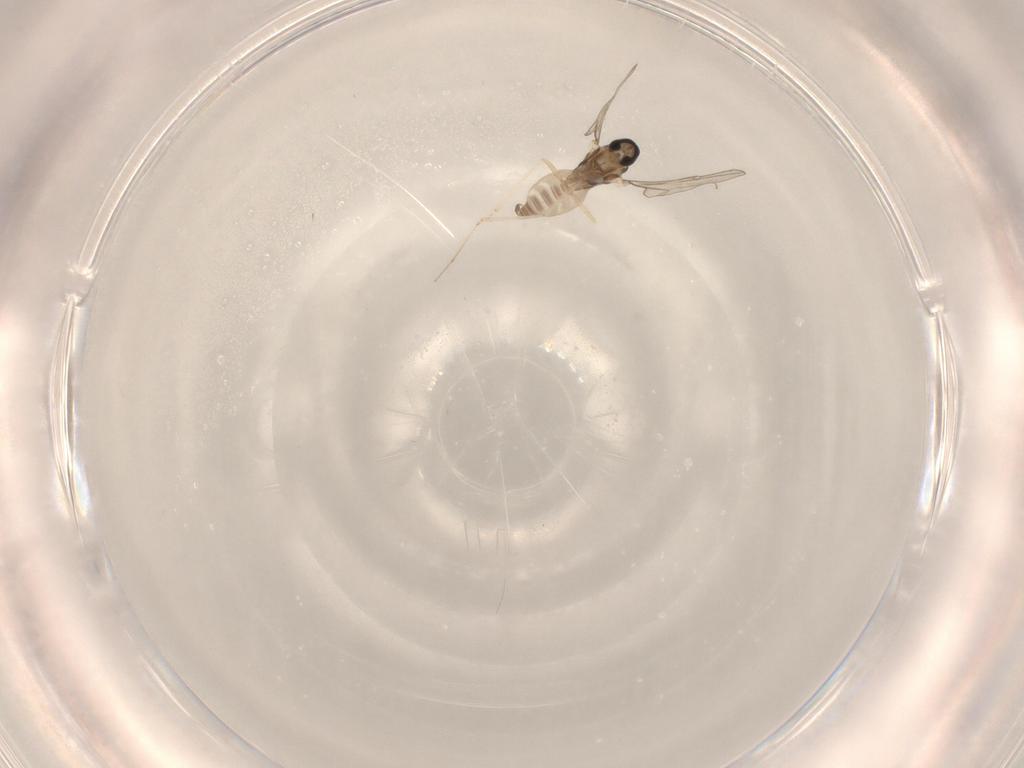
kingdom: Animalia
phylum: Arthropoda
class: Insecta
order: Diptera
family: Cecidomyiidae
